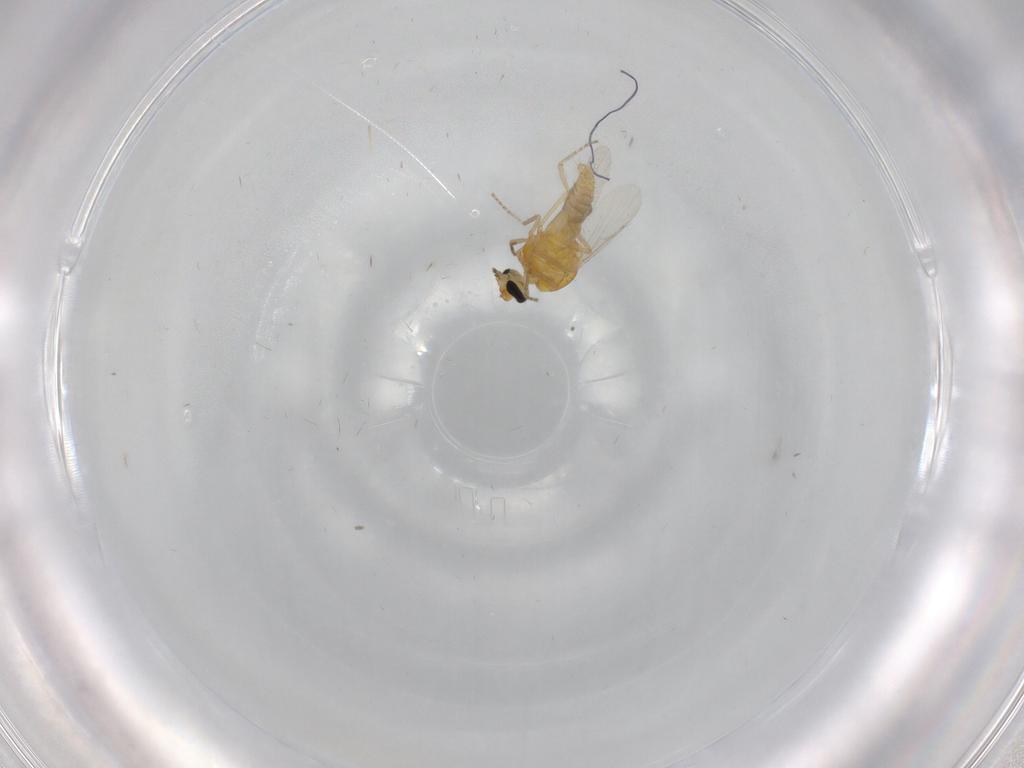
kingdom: Animalia
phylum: Arthropoda
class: Insecta
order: Diptera
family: Ceratopogonidae
